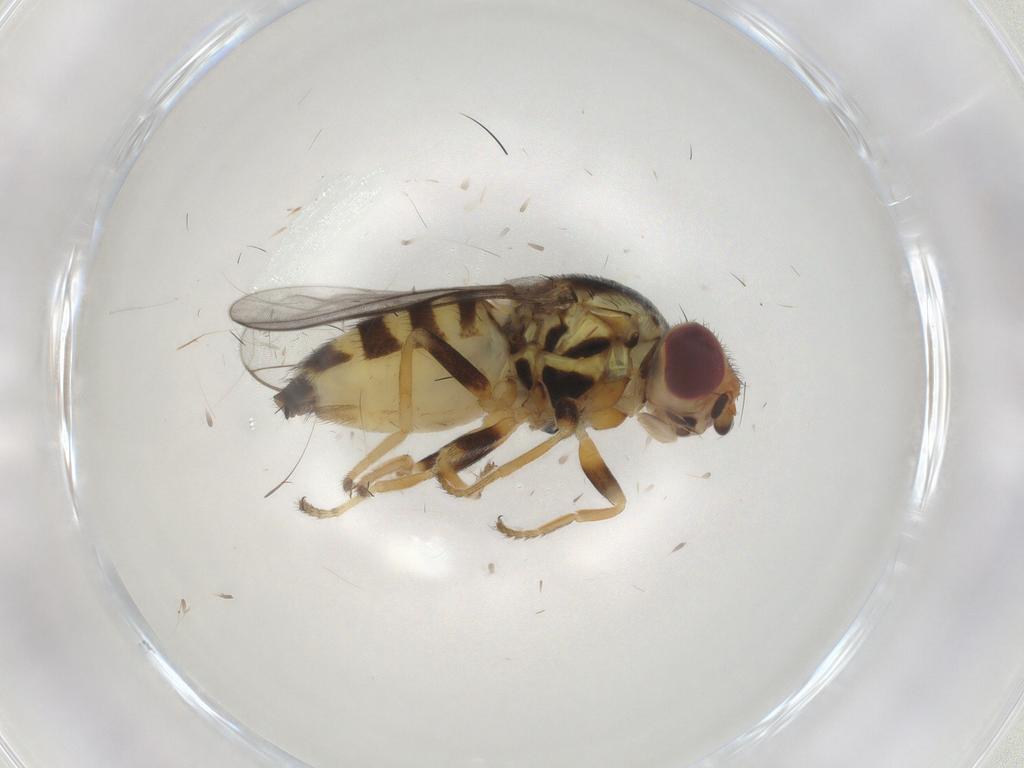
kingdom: Animalia
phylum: Arthropoda
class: Insecta
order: Diptera
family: Chloropidae
